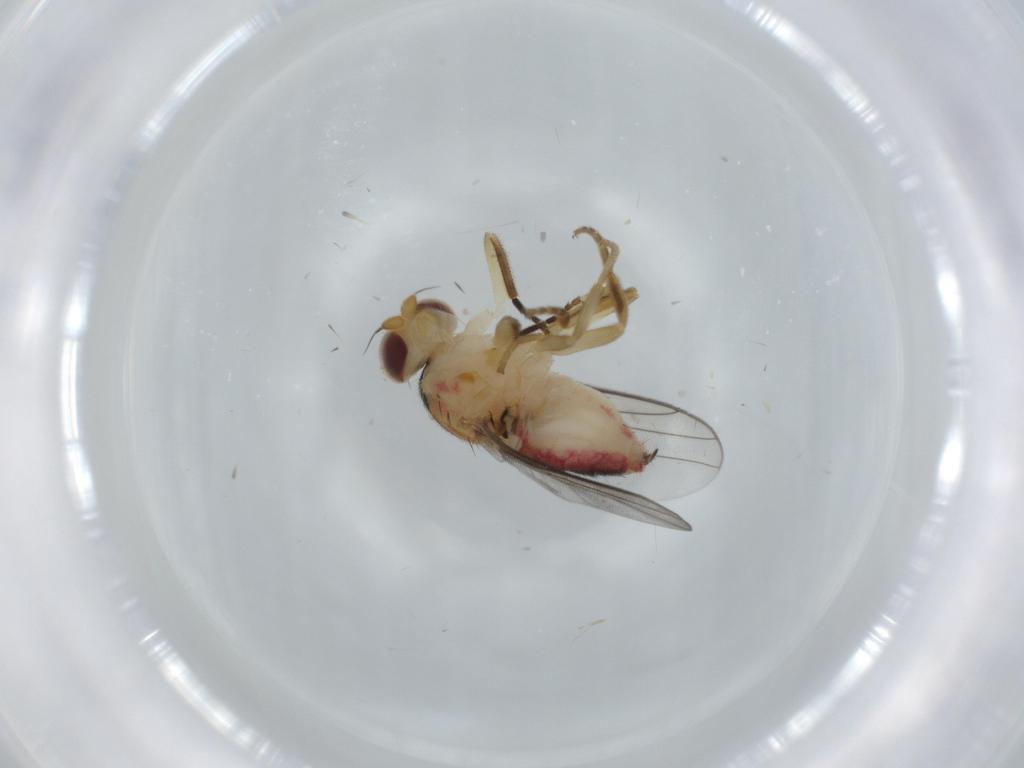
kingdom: Animalia
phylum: Arthropoda
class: Insecta
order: Diptera
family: Chloropidae
